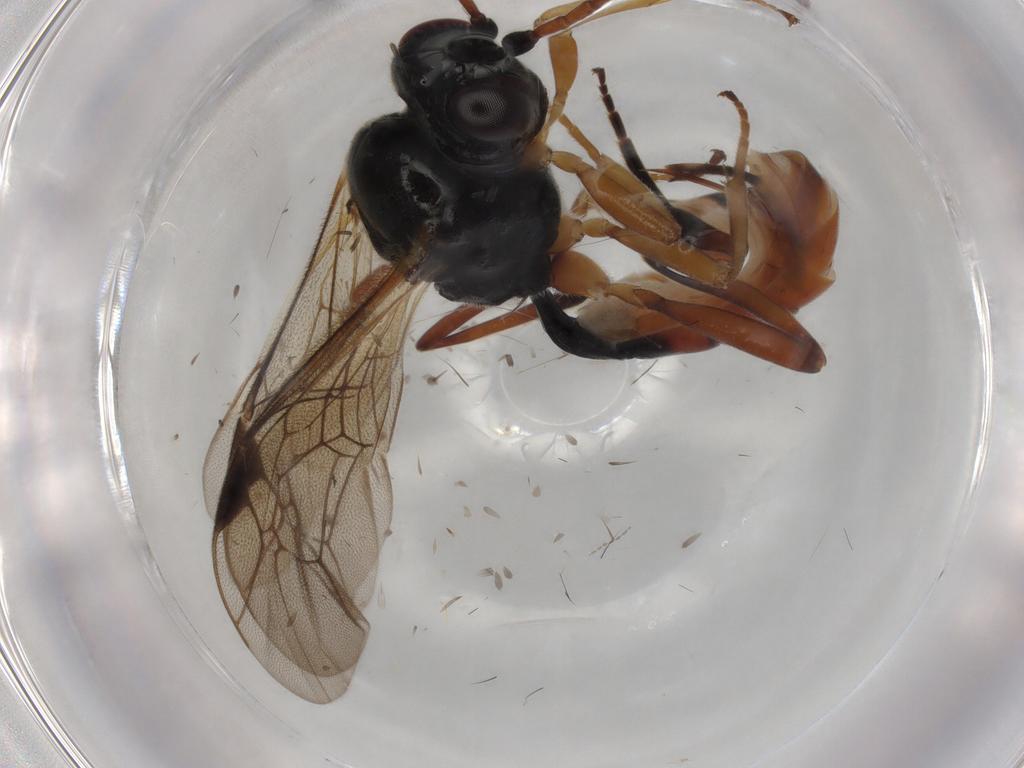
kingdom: Animalia
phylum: Arthropoda
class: Insecta
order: Hymenoptera
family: Ichneumonidae
